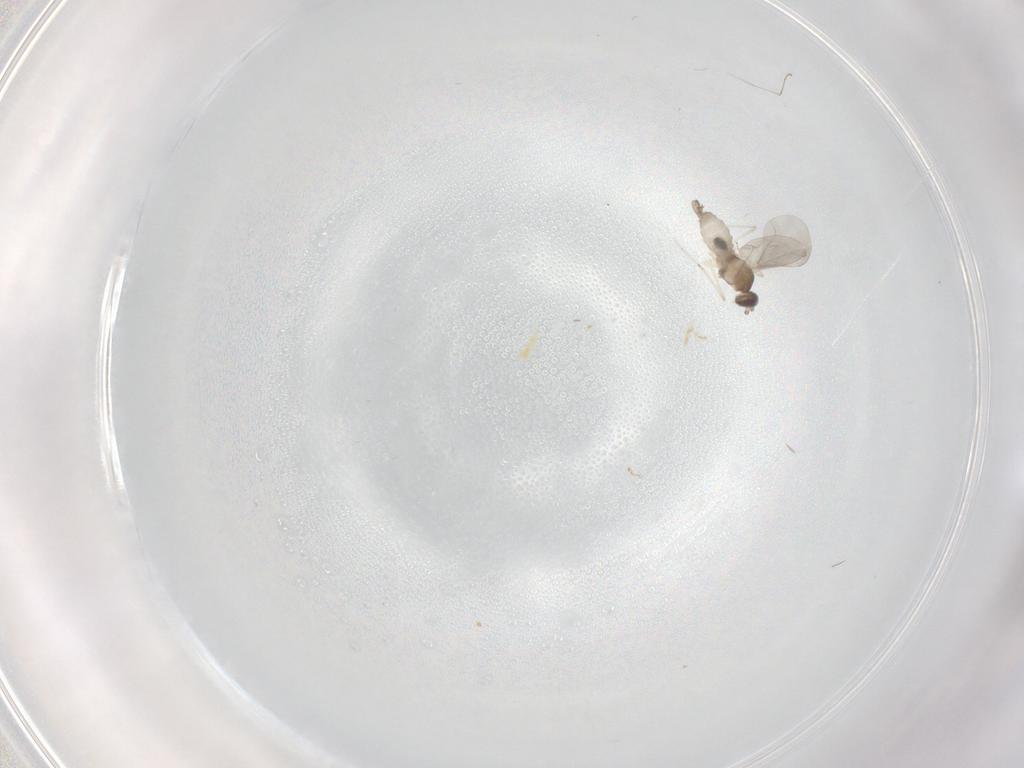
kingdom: Animalia
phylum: Arthropoda
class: Insecta
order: Diptera
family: Cecidomyiidae
